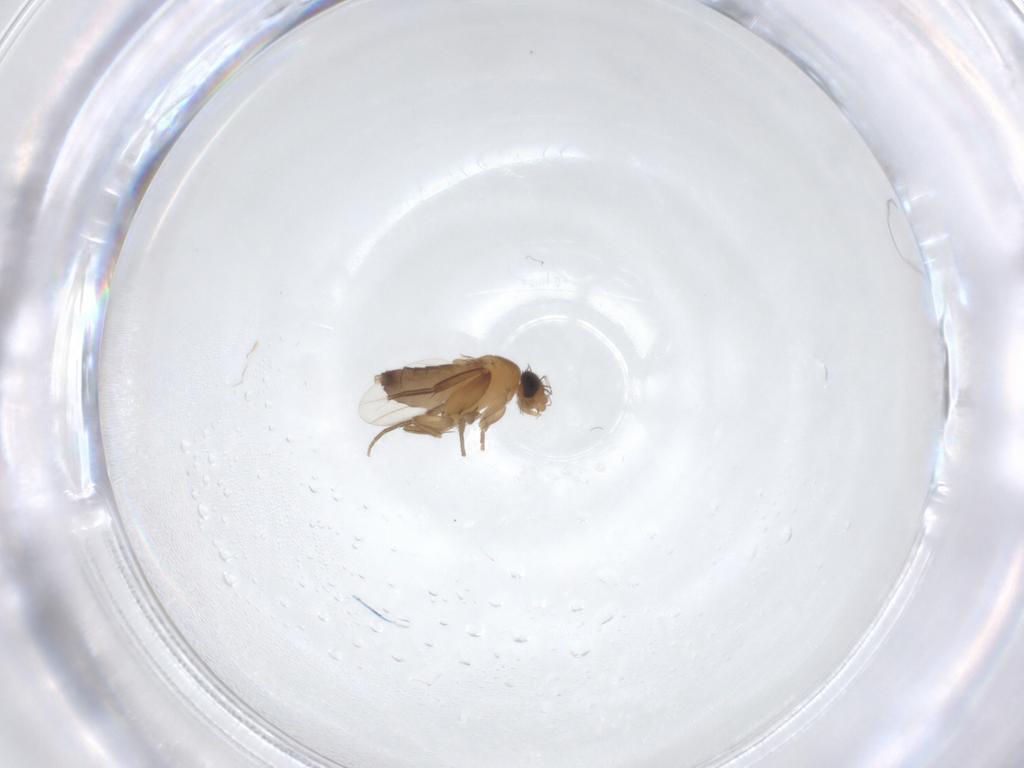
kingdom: Animalia
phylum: Arthropoda
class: Insecta
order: Diptera
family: Phoridae
